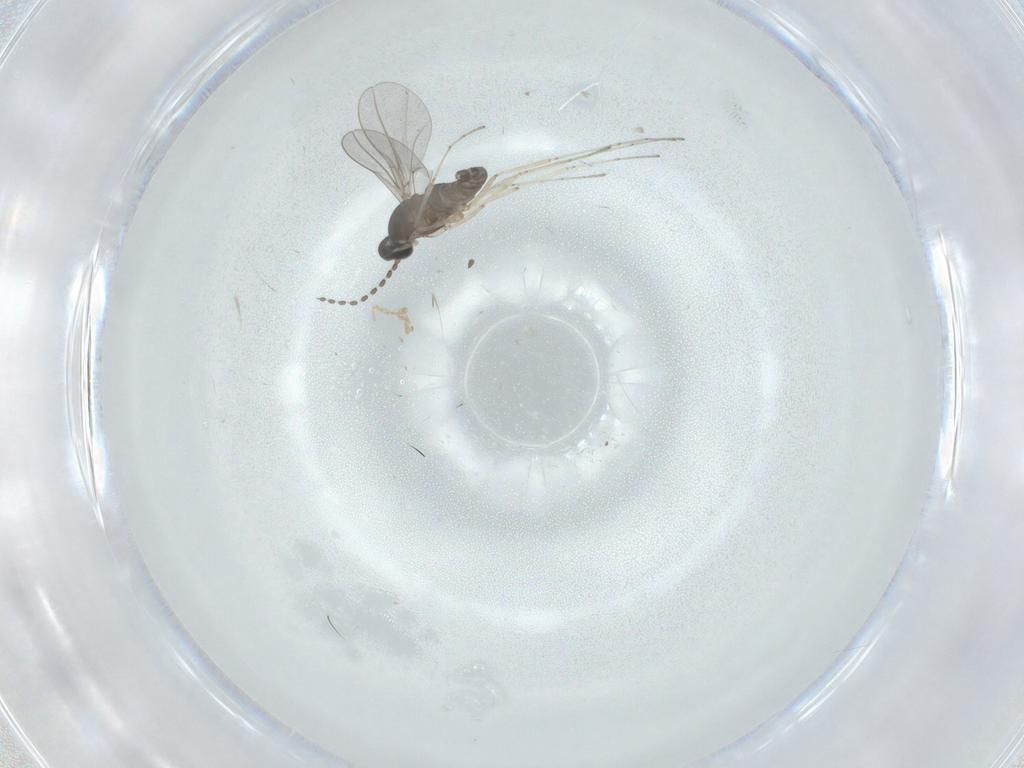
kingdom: Animalia
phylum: Arthropoda
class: Insecta
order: Diptera
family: Cecidomyiidae
